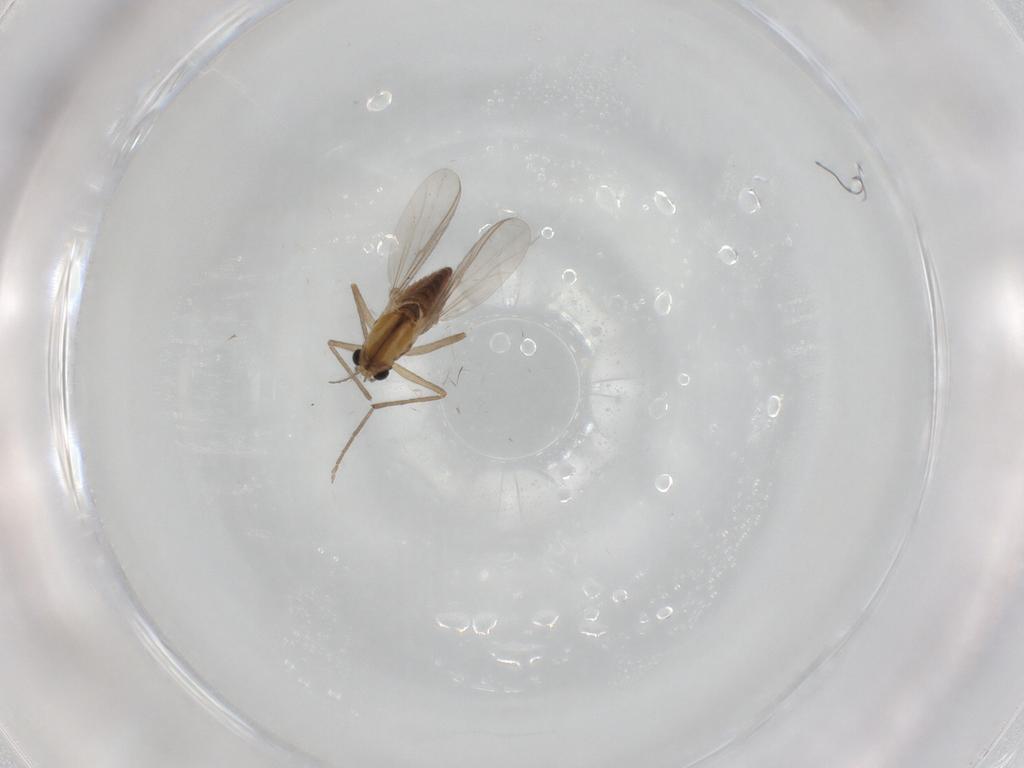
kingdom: Animalia
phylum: Arthropoda
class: Insecta
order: Diptera
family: Chironomidae
